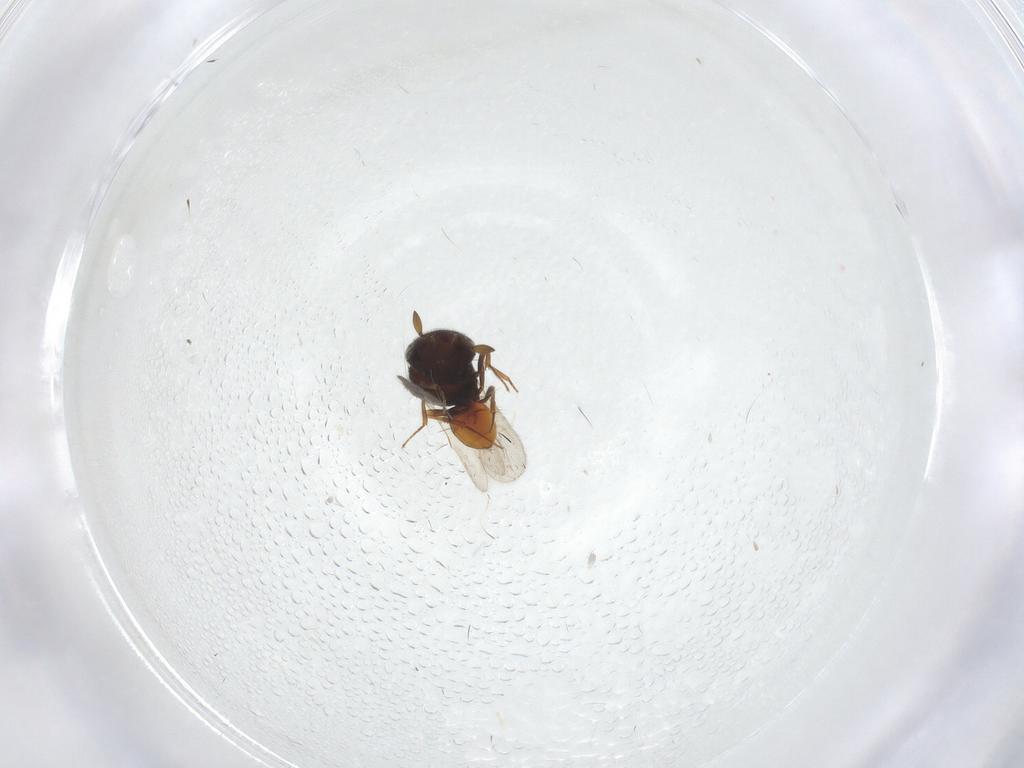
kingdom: Animalia
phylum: Arthropoda
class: Insecta
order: Hymenoptera
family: Scelionidae
